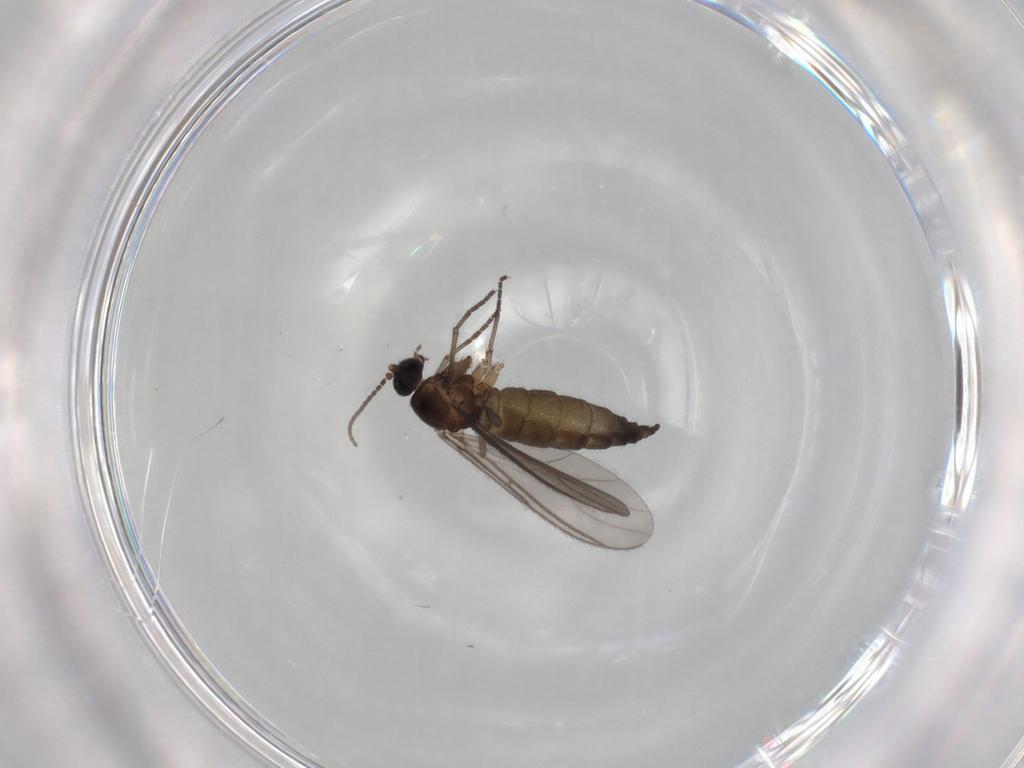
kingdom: Animalia
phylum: Arthropoda
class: Insecta
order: Diptera
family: Sciaridae
